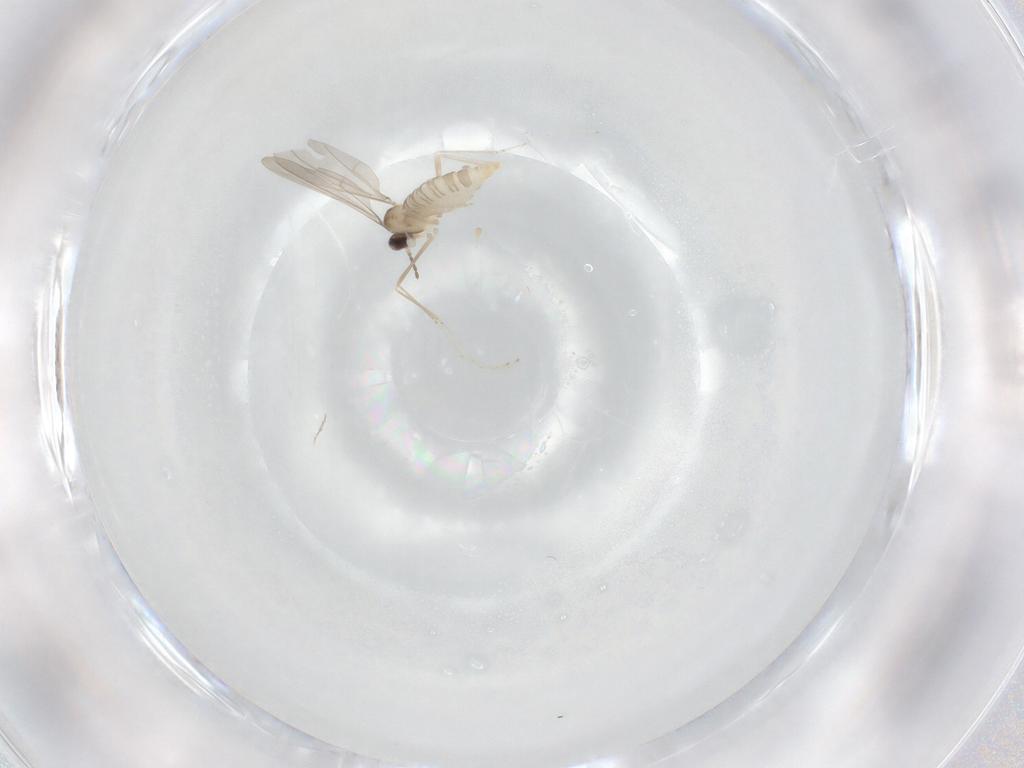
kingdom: Animalia
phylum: Arthropoda
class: Insecta
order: Diptera
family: Cecidomyiidae
